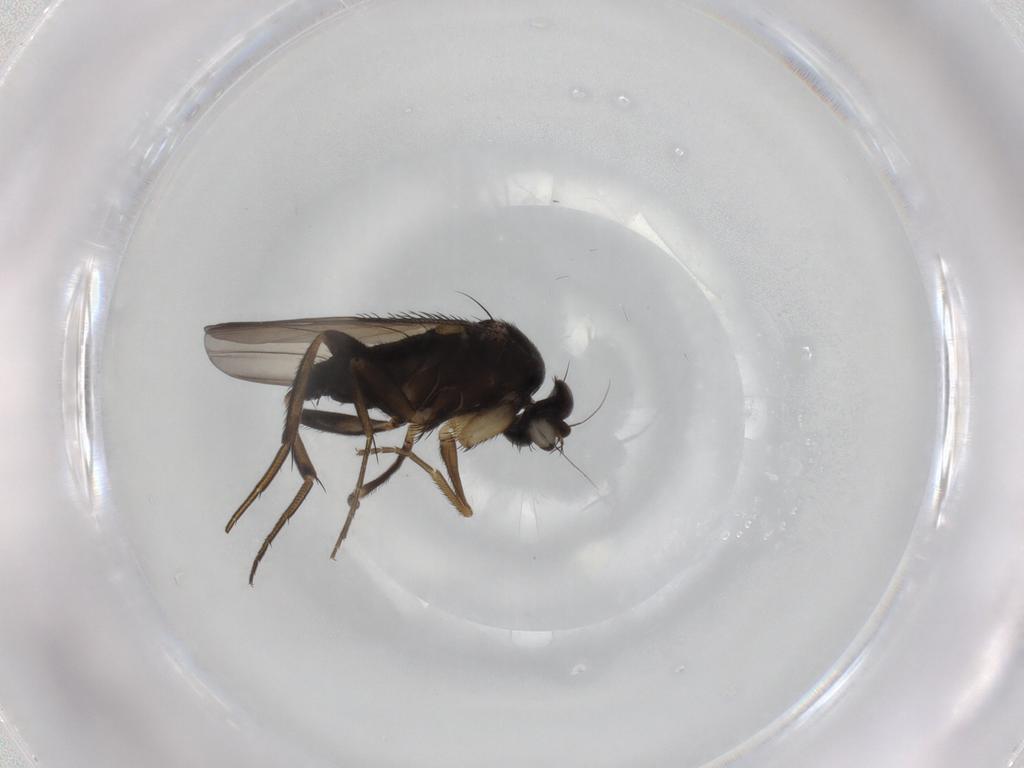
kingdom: Animalia
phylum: Arthropoda
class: Insecta
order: Diptera
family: Phoridae
